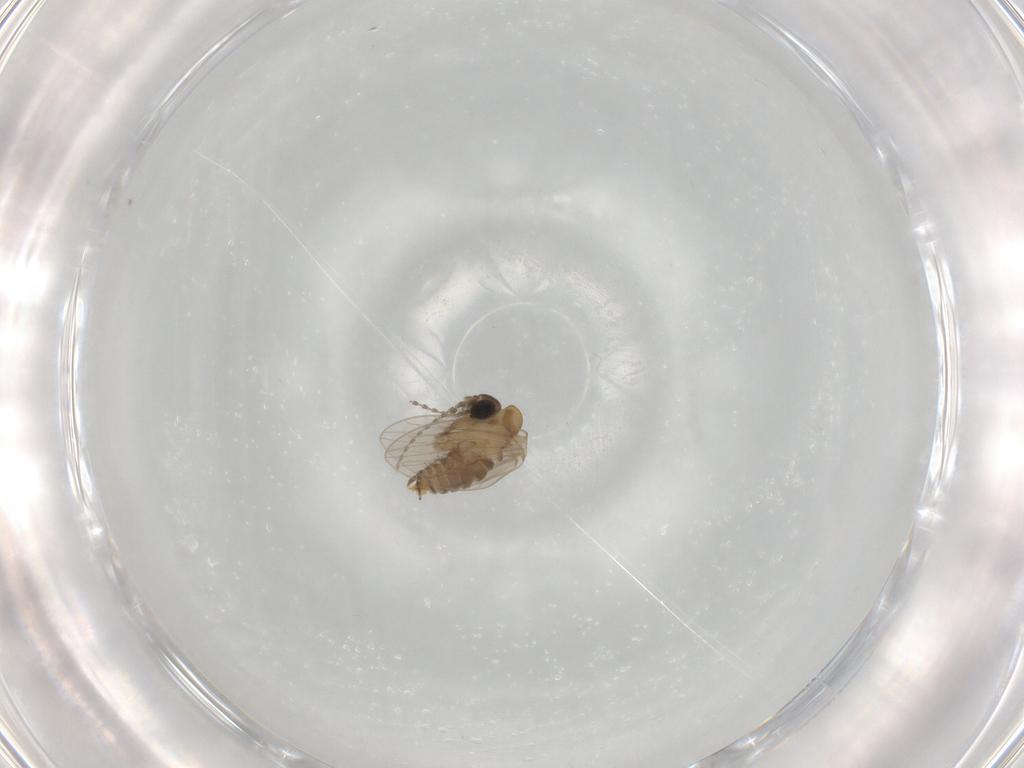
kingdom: Animalia
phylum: Arthropoda
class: Insecta
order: Diptera
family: Psychodidae
